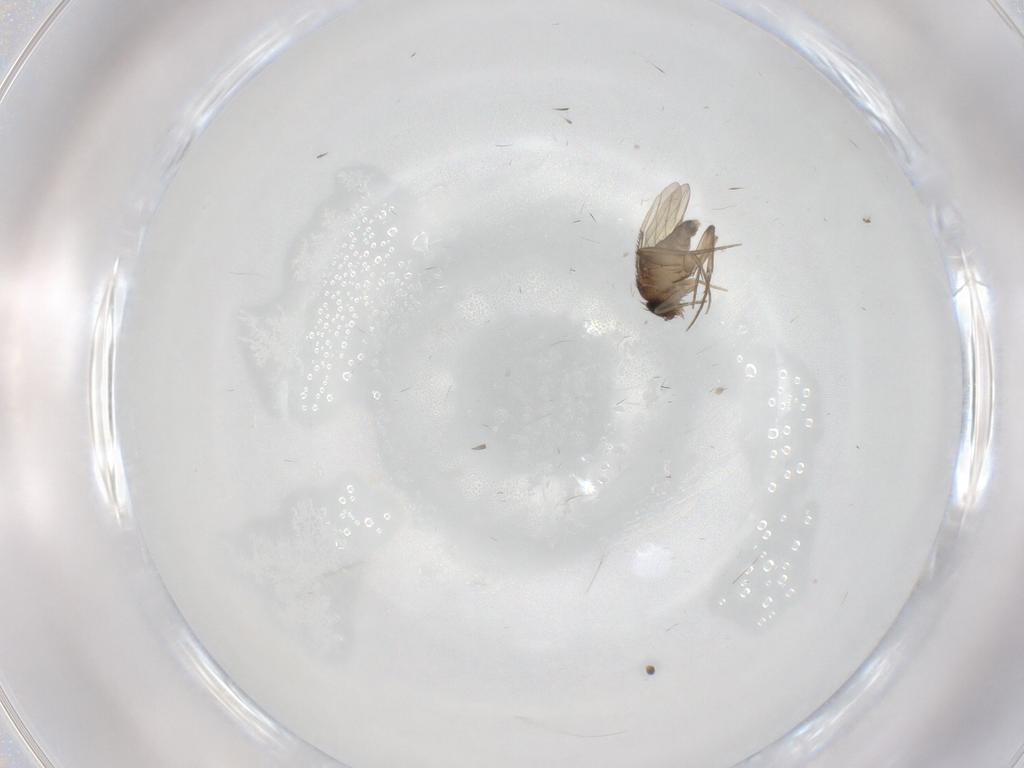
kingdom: Animalia
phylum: Arthropoda
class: Insecta
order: Diptera
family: Phoridae
